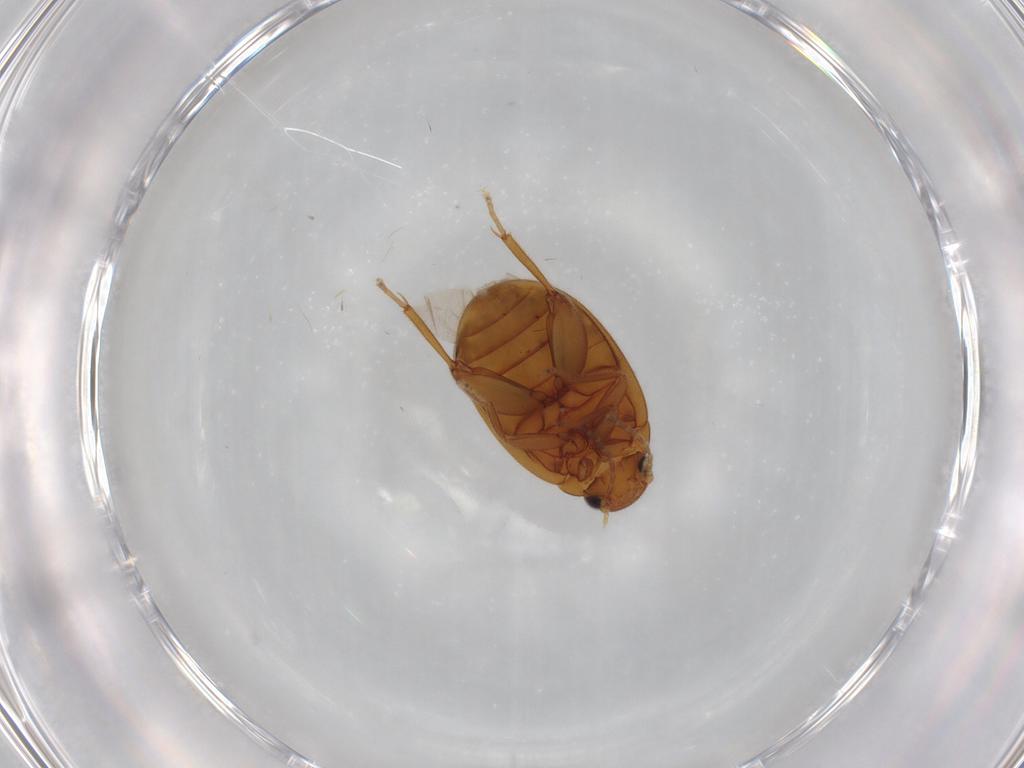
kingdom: Animalia
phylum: Arthropoda
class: Insecta
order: Coleoptera
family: Scirtidae
